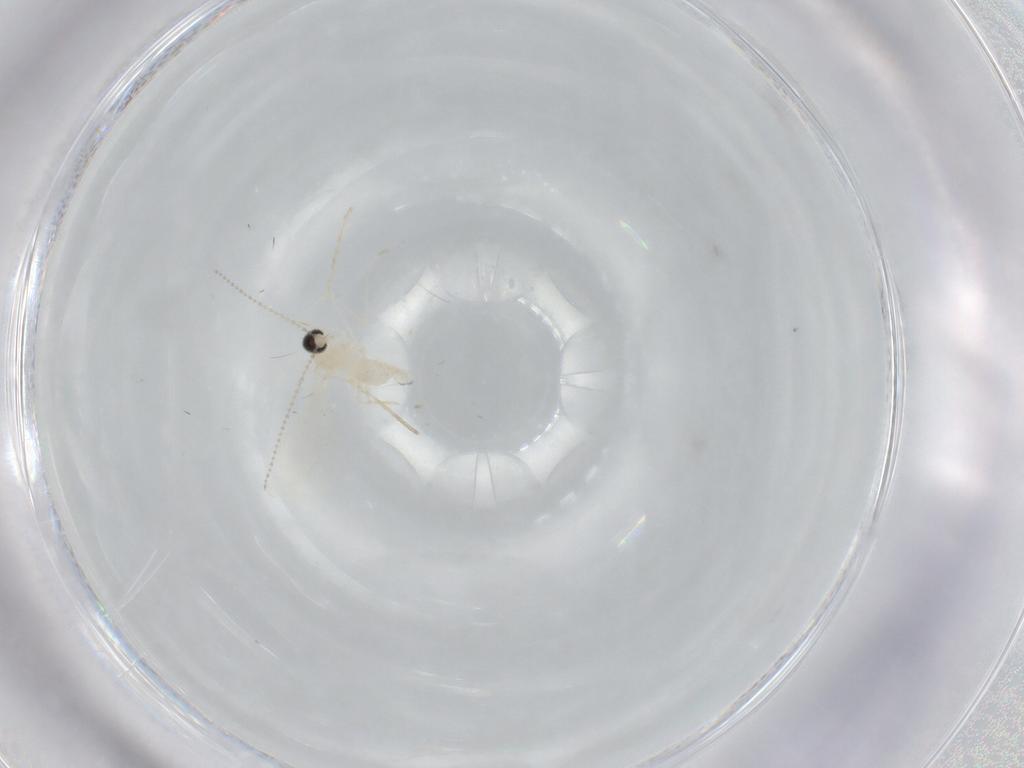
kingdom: Animalia
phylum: Arthropoda
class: Insecta
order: Diptera
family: Cecidomyiidae
